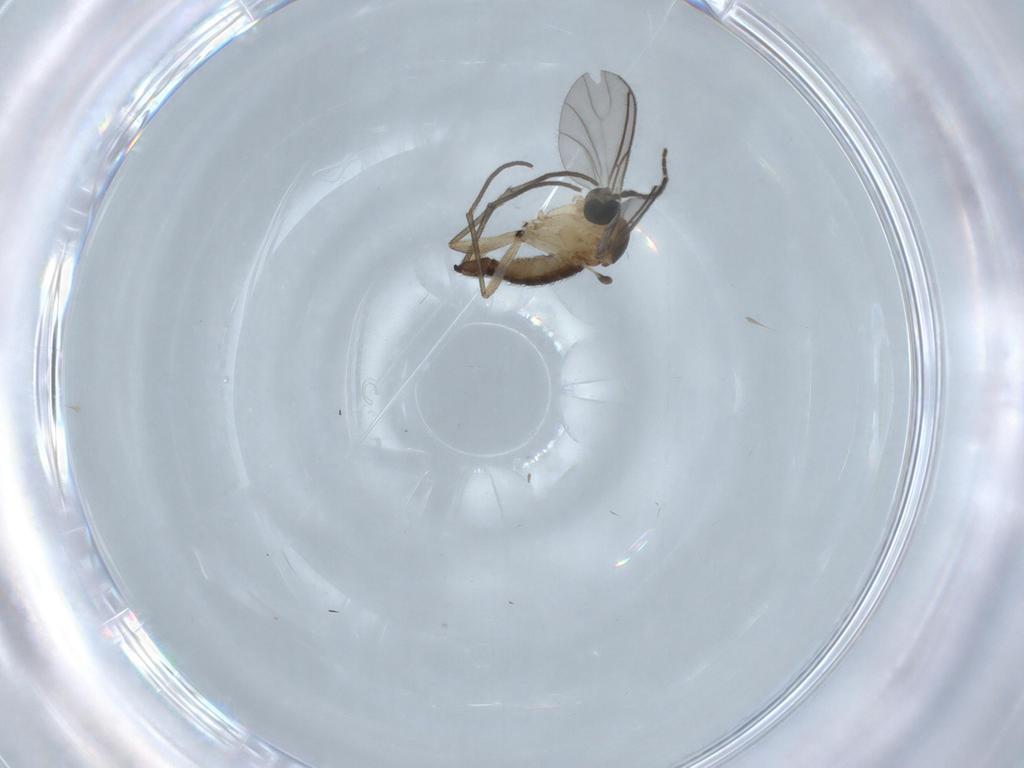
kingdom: Animalia
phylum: Arthropoda
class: Insecta
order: Diptera
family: Sciaridae
